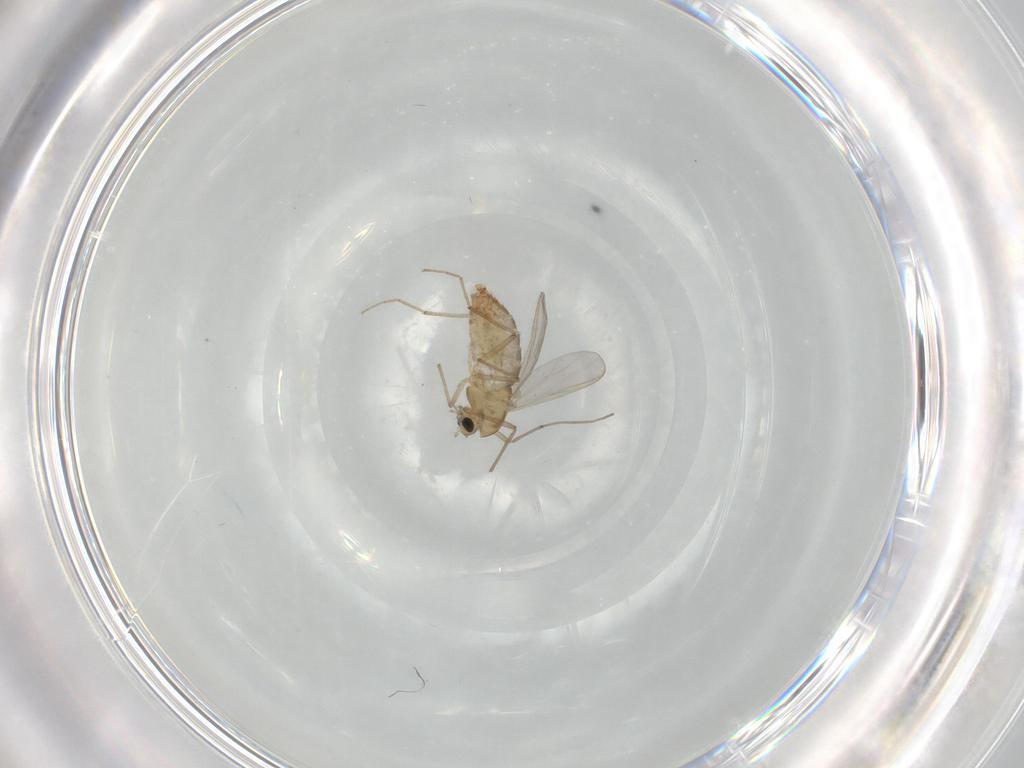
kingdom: Animalia
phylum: Arthropoda
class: Insecta
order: Diptera
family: Chironomidae
